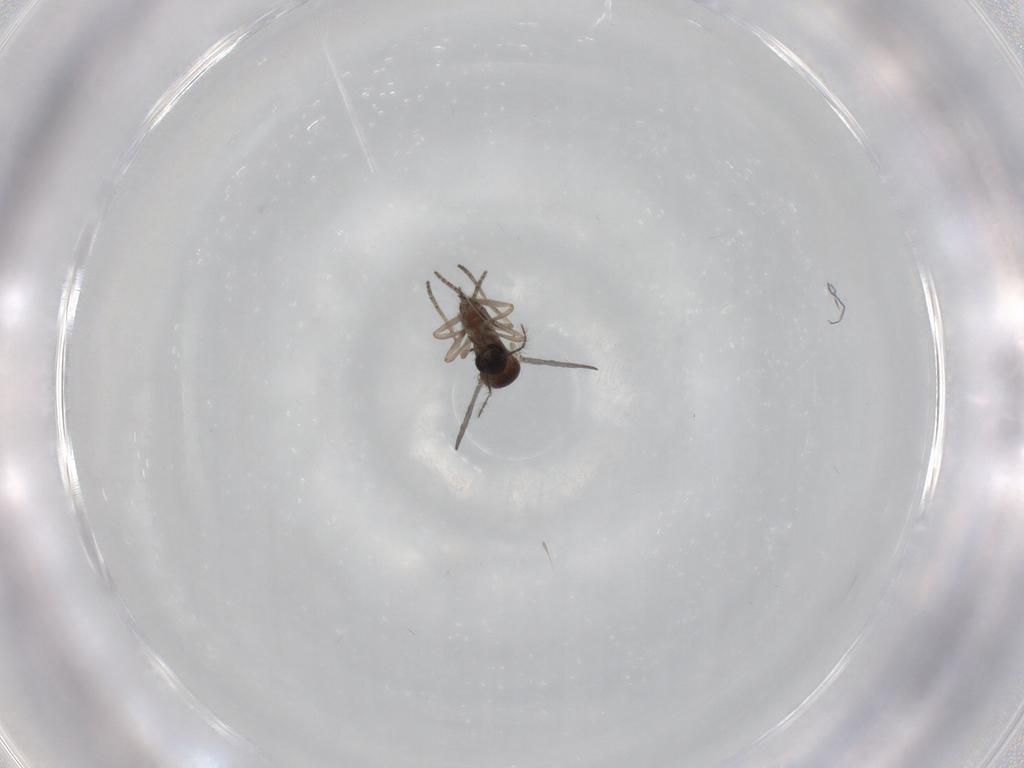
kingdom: Animalia
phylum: Arthropoda
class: Insecta
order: Diptera
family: Ceratopogonidae
